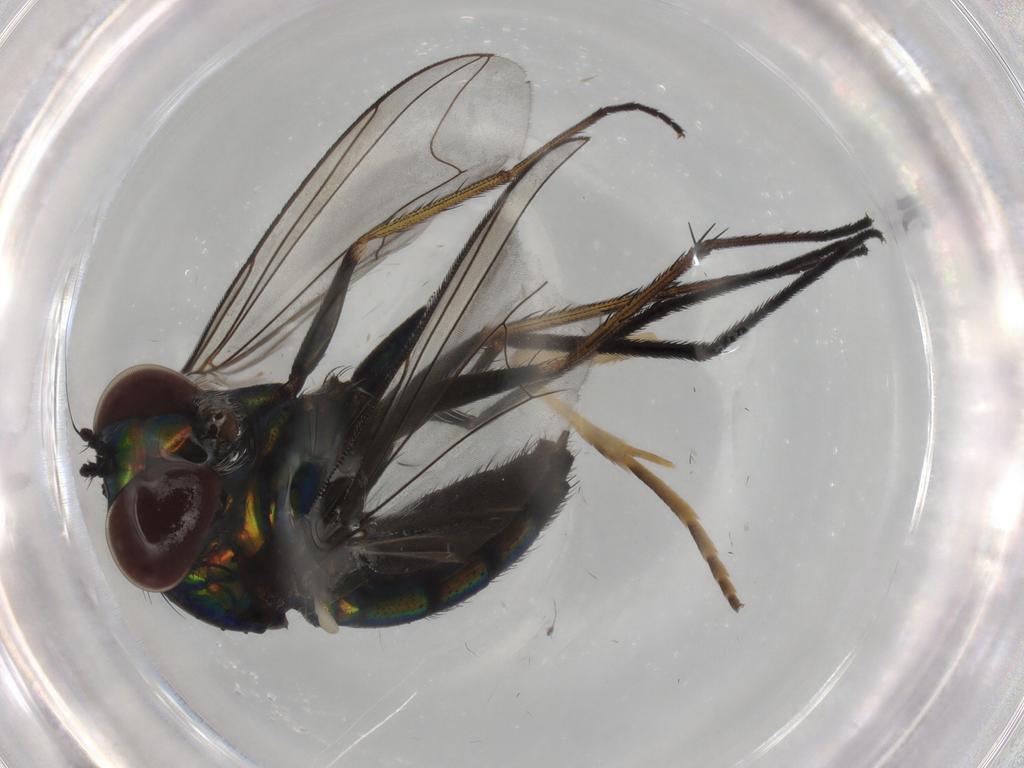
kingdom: Animalia
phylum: Arthropoda
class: Insecta
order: Diptera
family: Dolichopodidae
